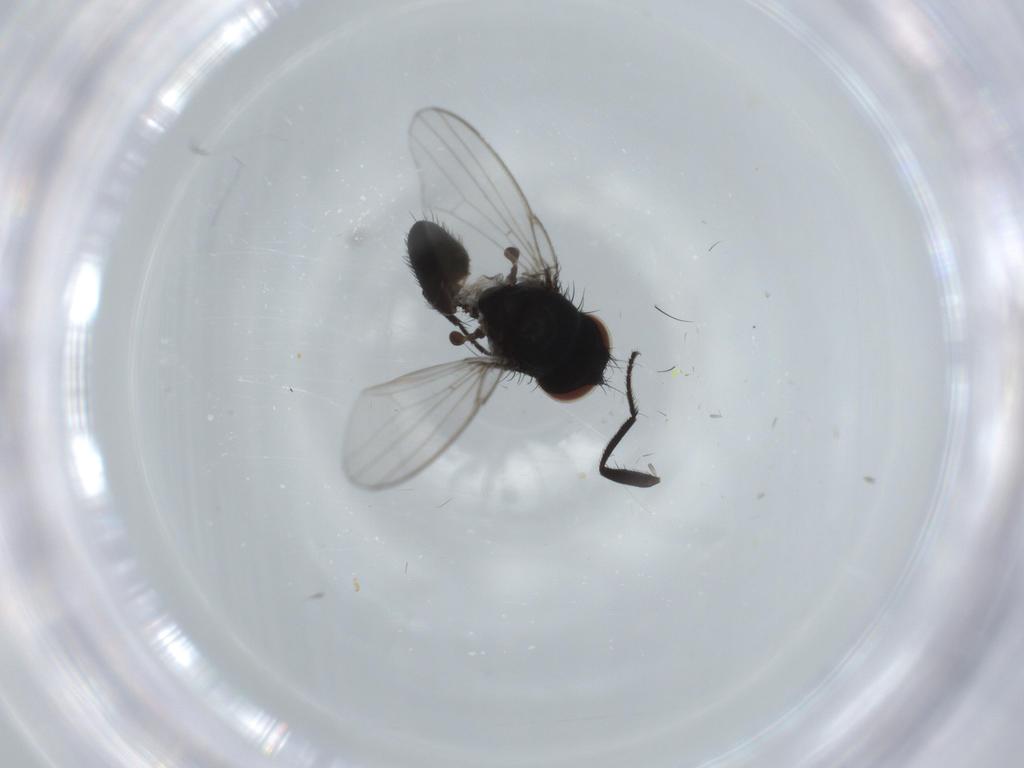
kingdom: Animalia
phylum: Arthropoda
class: Insecta
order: Diptera
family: Milichiidae
